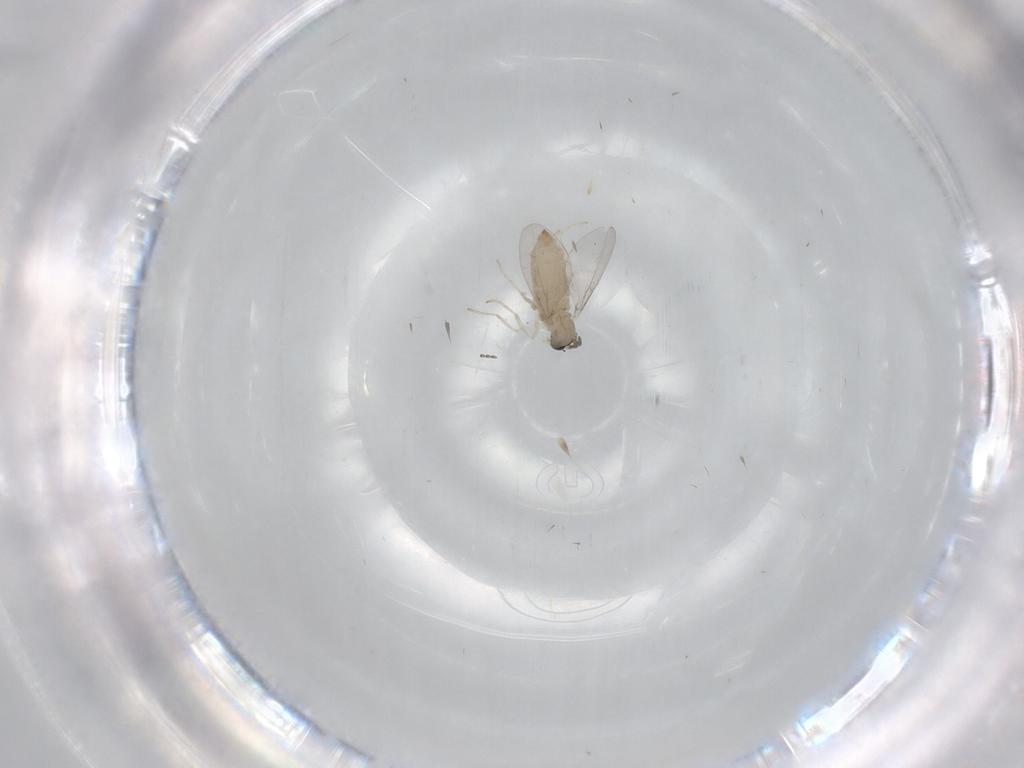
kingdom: Animalia
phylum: Arthropoda
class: Insecta
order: Diptera
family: Cecidomyiidae
